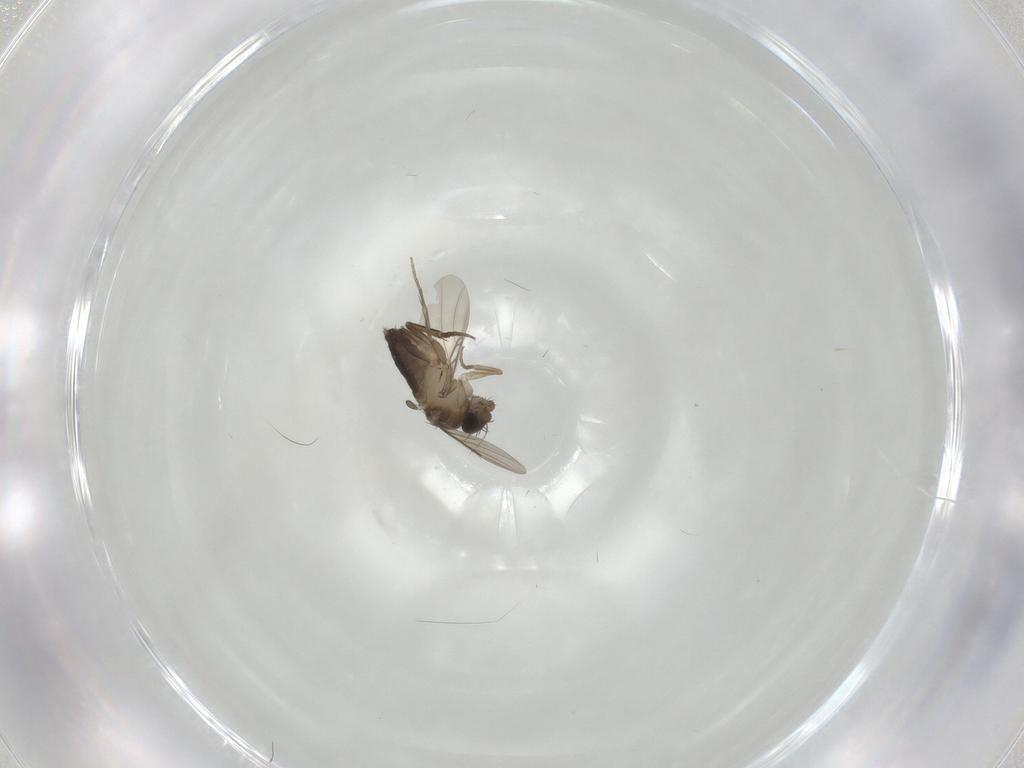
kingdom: Animalia
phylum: Arthropoda
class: Insecta
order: Diptera
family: Phoridae
